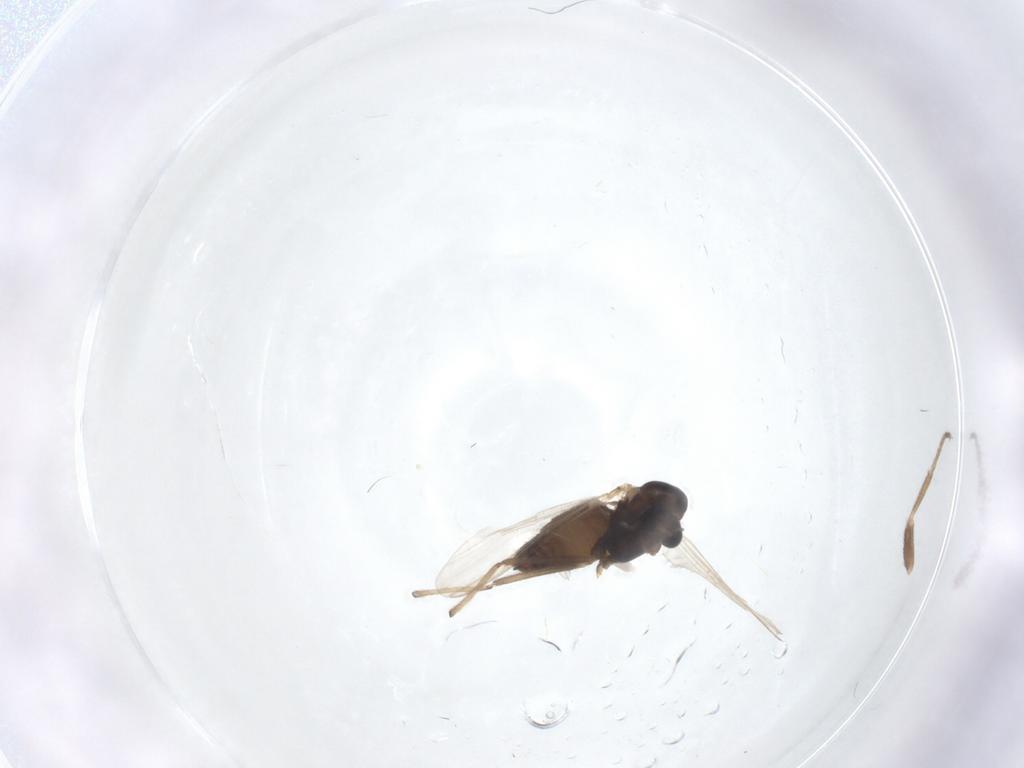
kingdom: Animalia
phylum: Arthropoda
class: Insecta
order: Diptera
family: Chironomidae
